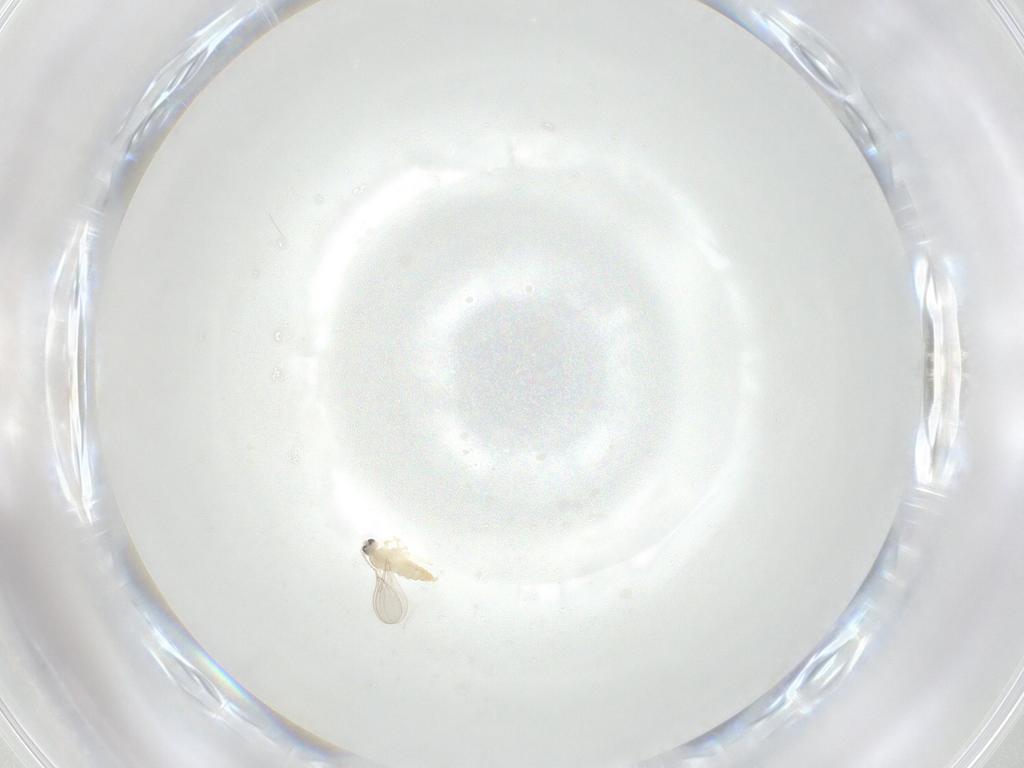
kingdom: Animalia
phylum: Arthropoda
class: Insecta
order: Diptera
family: Cecidomyiidae
